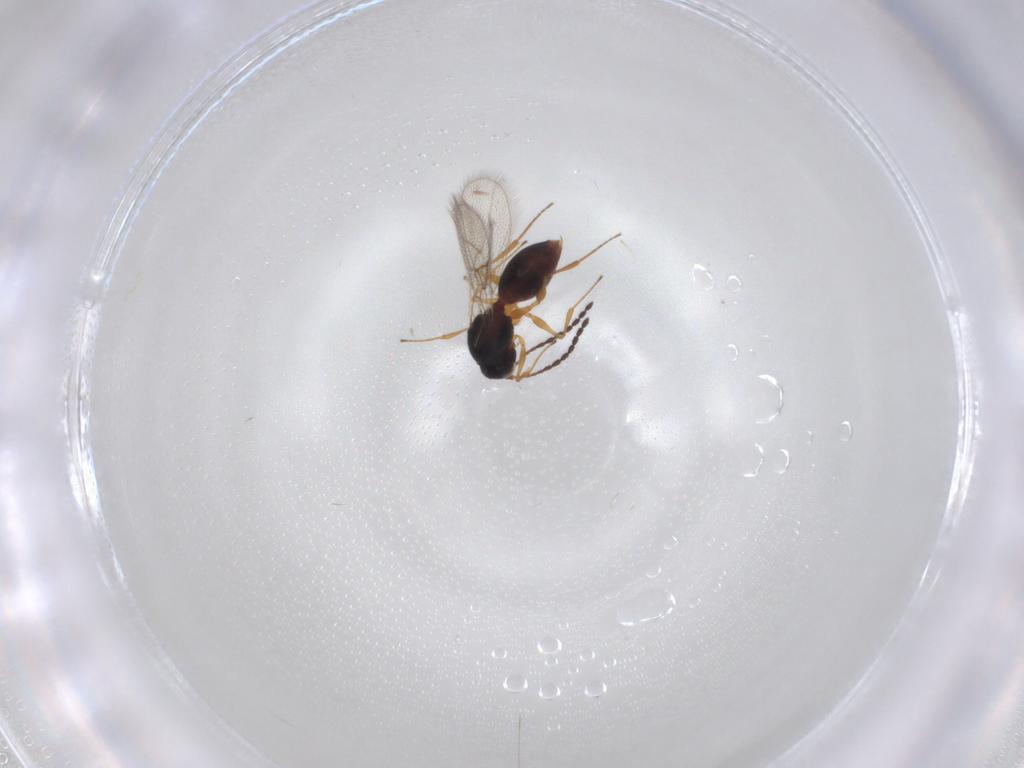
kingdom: Animalia
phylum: Arthropoda
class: Insecta
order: Hymenoptera
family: Figitidae
